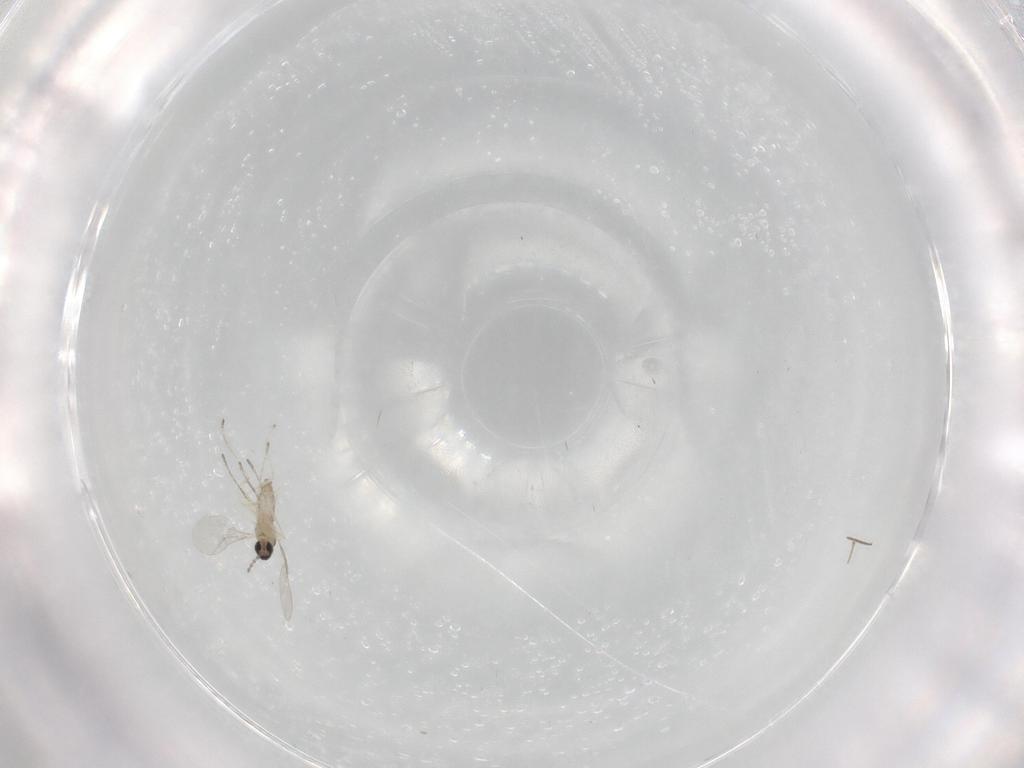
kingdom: Animalia
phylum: Arthropoda
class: Insecta
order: Diptera
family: Cecidomyiidae
